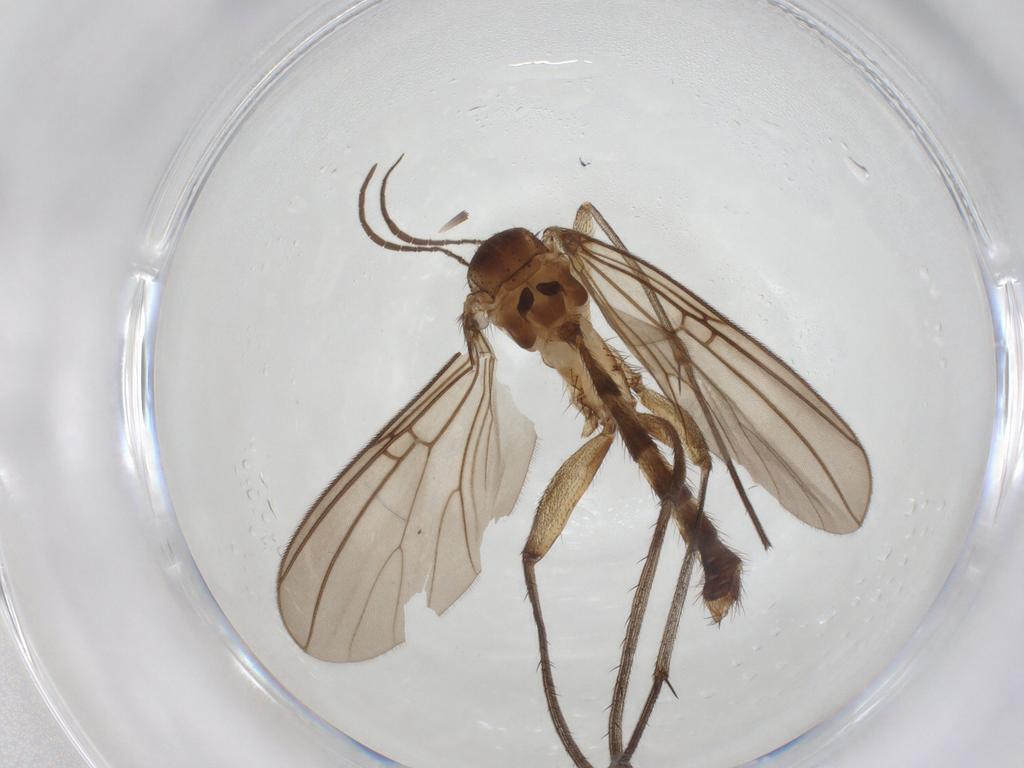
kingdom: Animalia
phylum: Arthropoda
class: Insecta
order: Diptera
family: Mycetophilidae
